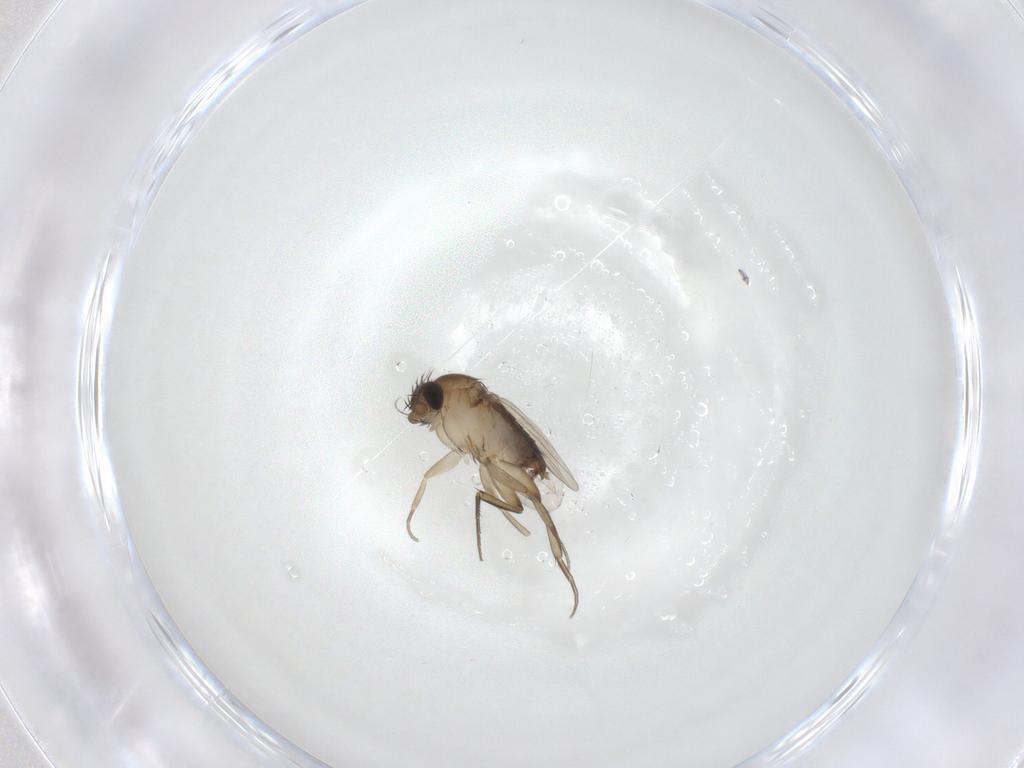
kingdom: Animalia
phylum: Arthropoda
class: Insecta
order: Diptera
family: Phoridae
